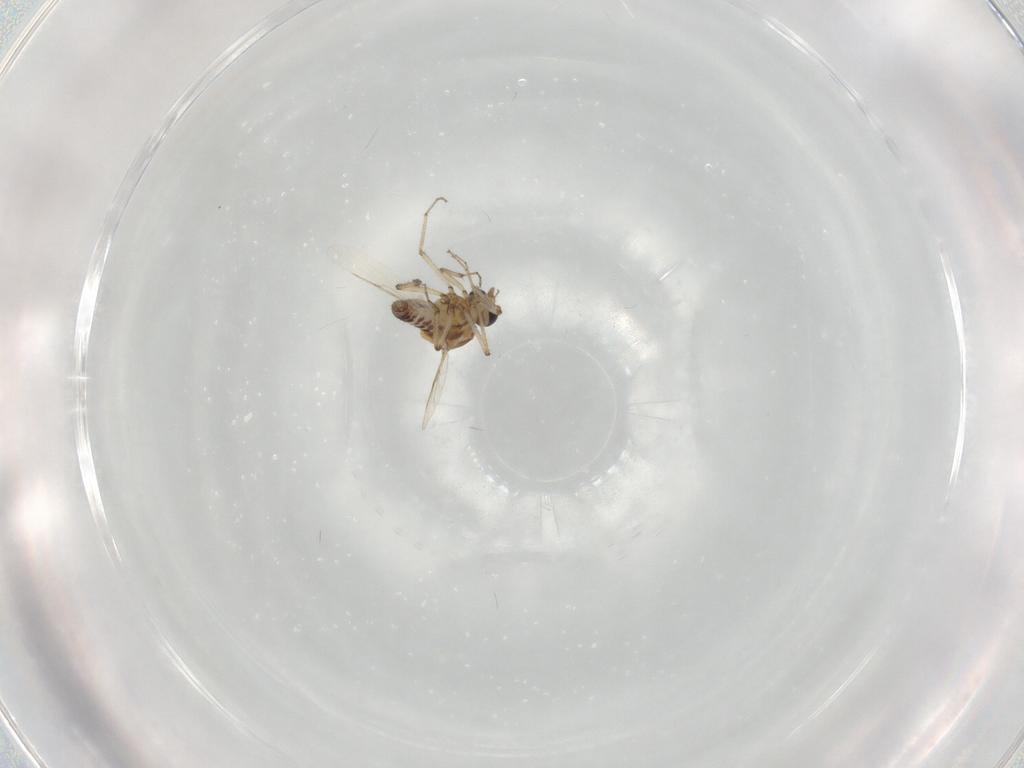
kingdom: Animalia
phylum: Arthropoda
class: Insecta
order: Diptera
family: Ceratopogonidae
